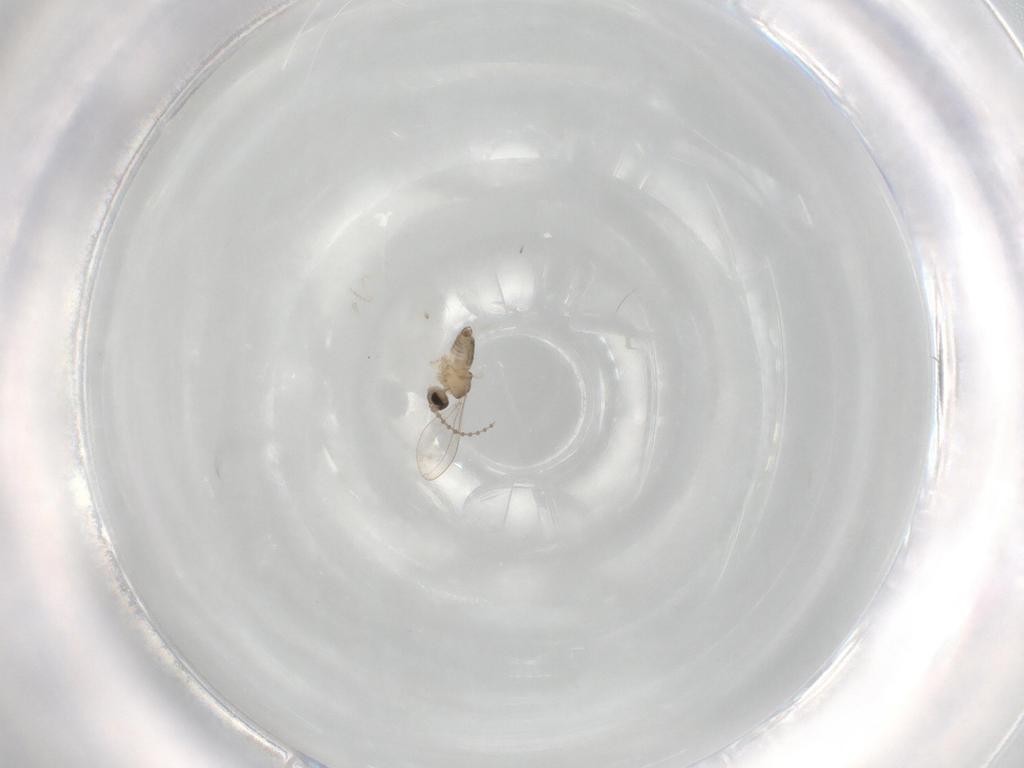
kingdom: Animalia
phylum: Arthropoda
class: Insecta
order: Diptera
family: Cecidomyiidae
